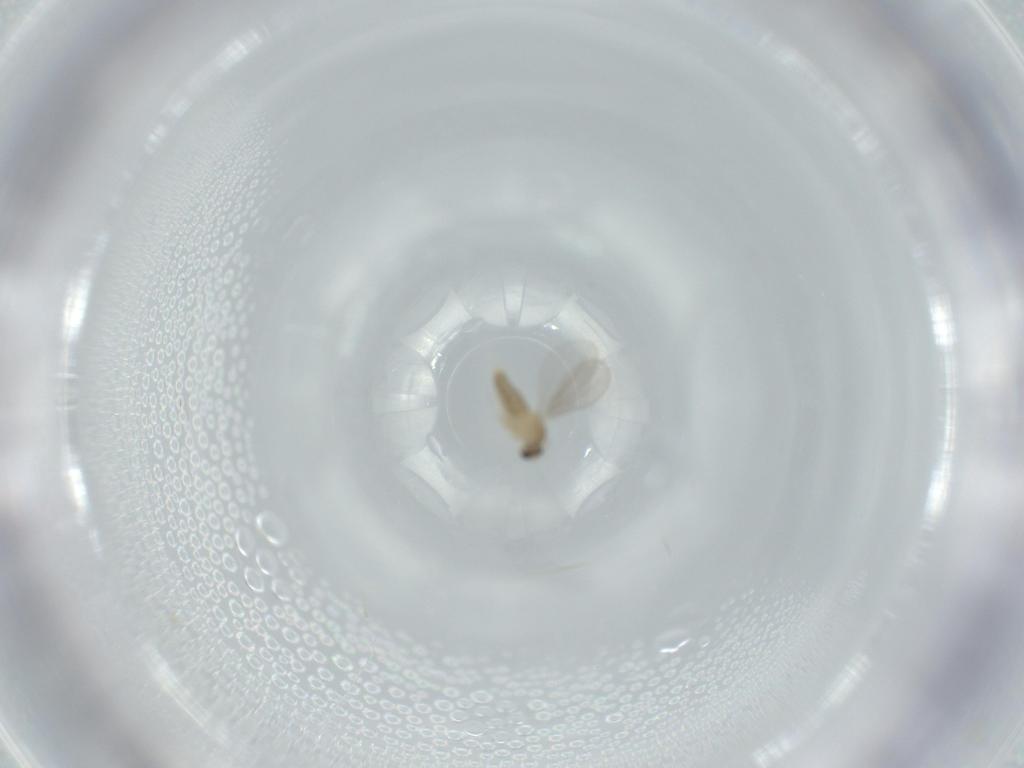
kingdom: Animalia
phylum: Arthropoda
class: Insecta
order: Diptera
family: Cecidomyiidae
